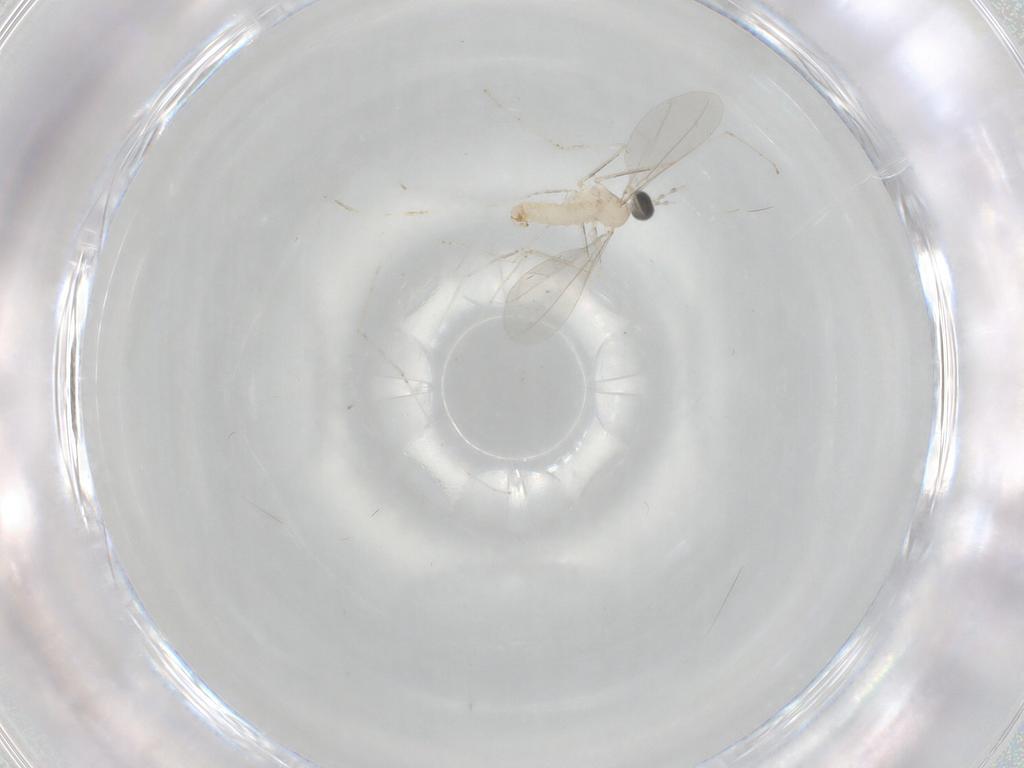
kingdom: Animalia
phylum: Arthropoda
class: Insecta
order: Diptera
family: Cecidomyiidae
